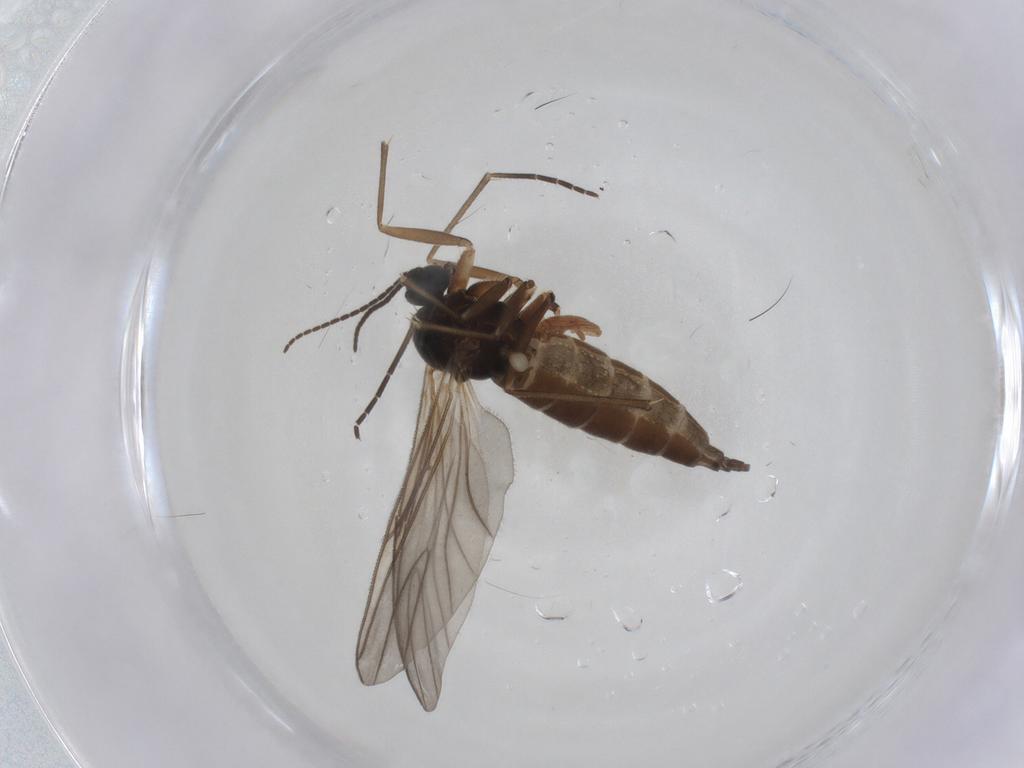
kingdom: Animalia
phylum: Arthropoda
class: Insecta
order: Diptera
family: Sciaridae
